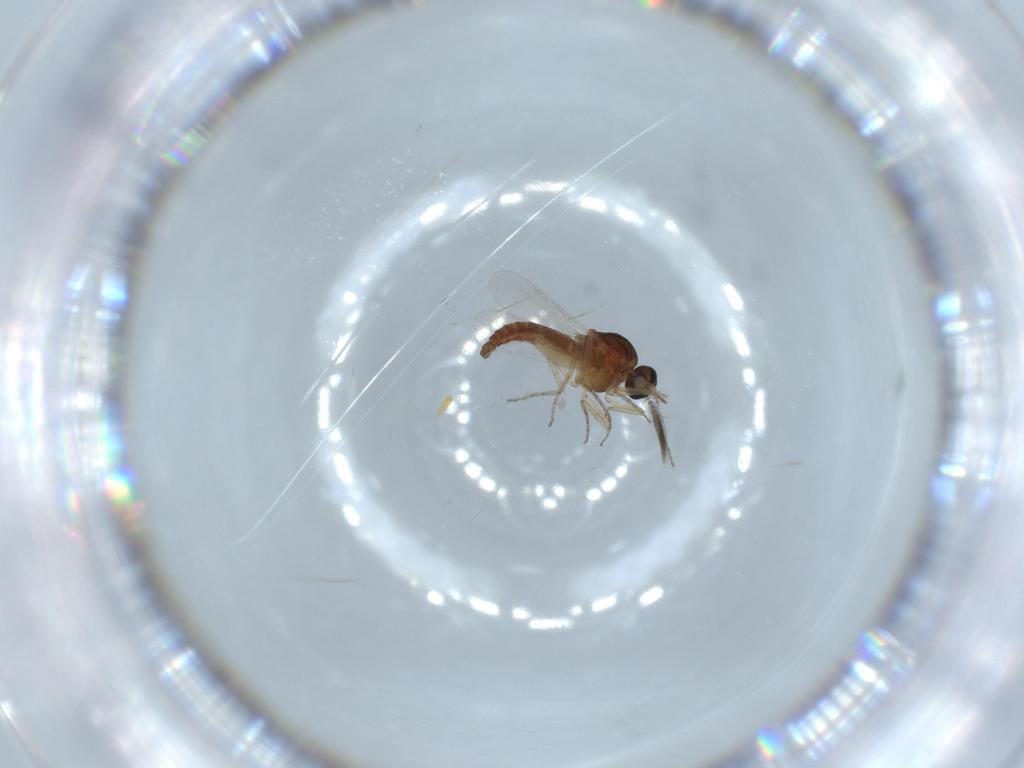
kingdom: Animalia
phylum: Arthropoda
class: Insecta
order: Diptera
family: Ceratopogonidae
